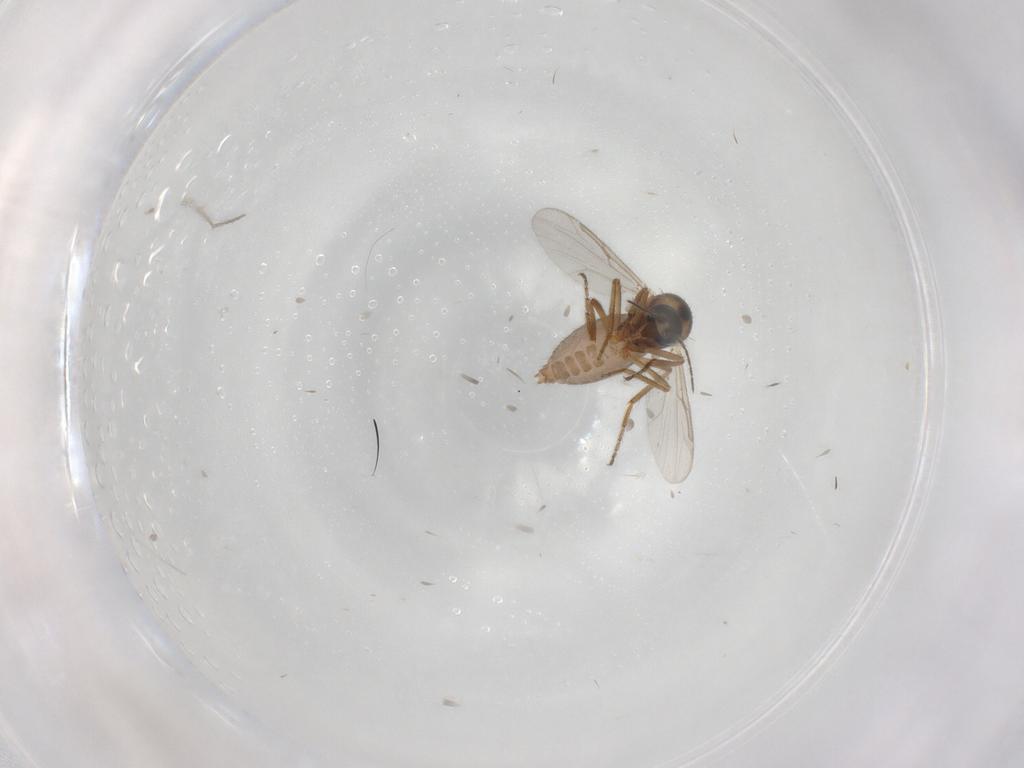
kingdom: Animalia
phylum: Arthropoda
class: Insecta
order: Diptera
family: Ceratopogonidae
